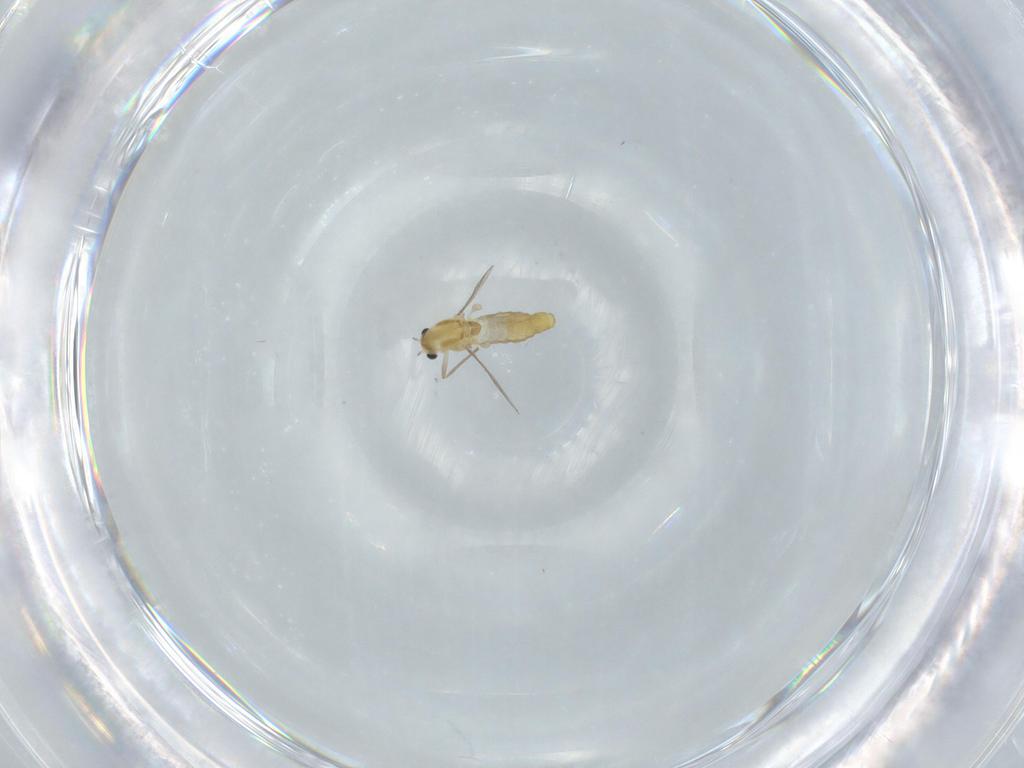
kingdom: Animalia
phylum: Arthropoda
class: Insecta
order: Diptera
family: Chironomidae
